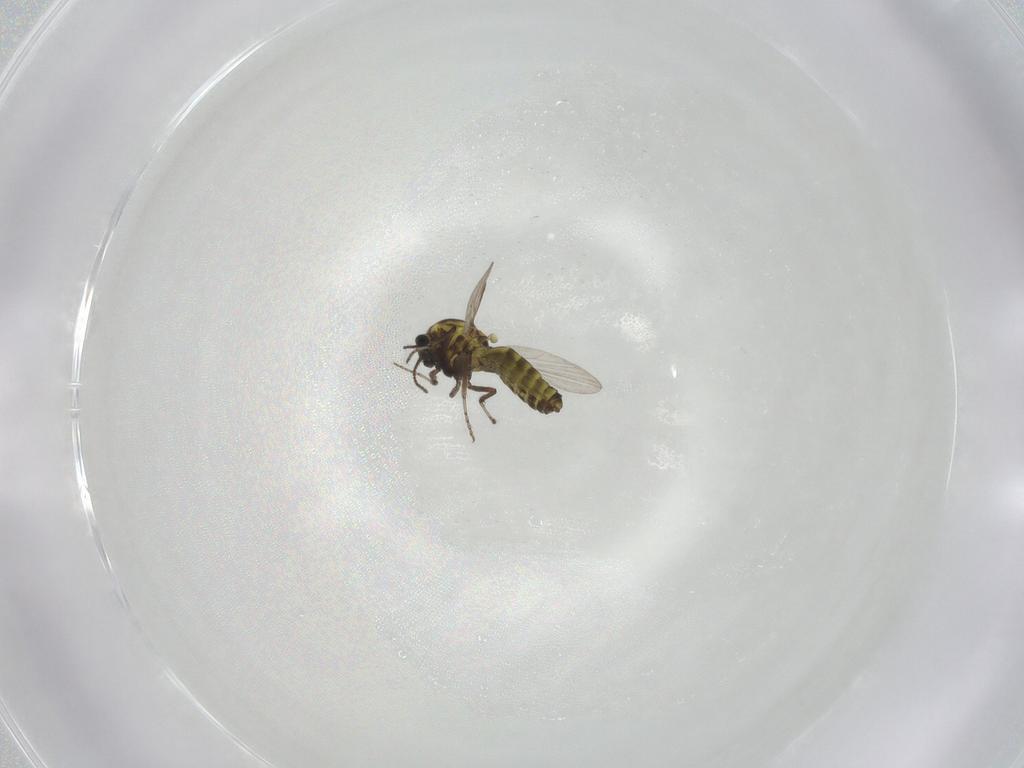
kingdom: Animalia
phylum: Arthropoda
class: Insecta
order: Diptera
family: Ceratopogonidae
